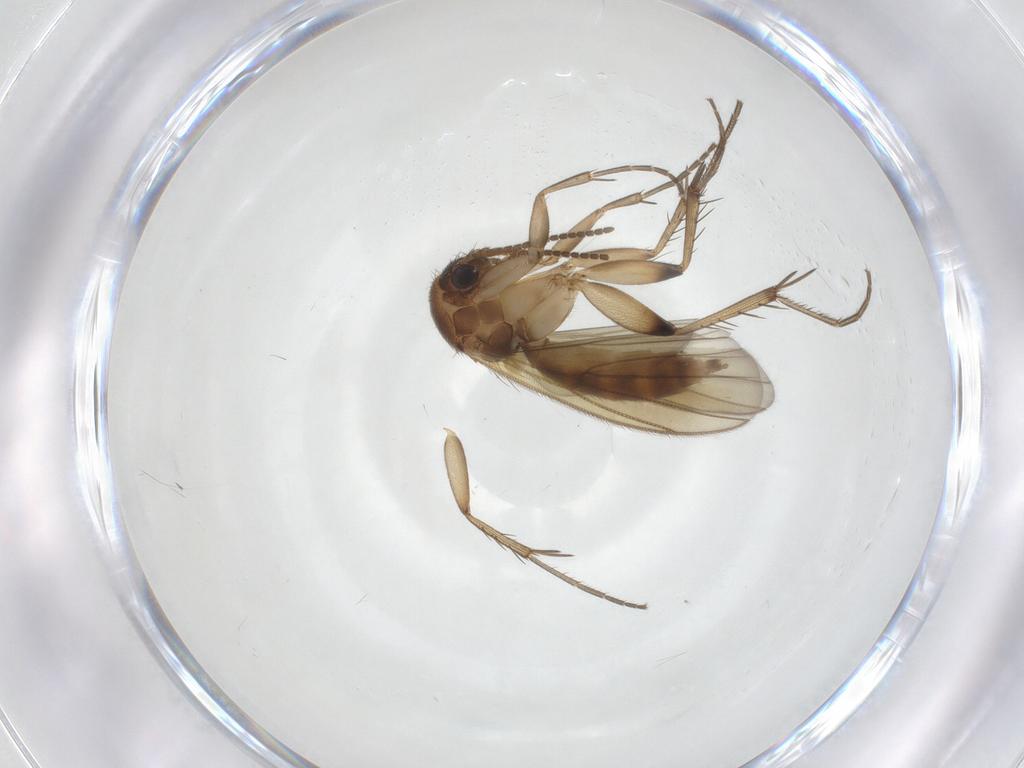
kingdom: Animalia
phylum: Arthropoda
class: Insecta
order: Diptera
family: Mycetophilidae
